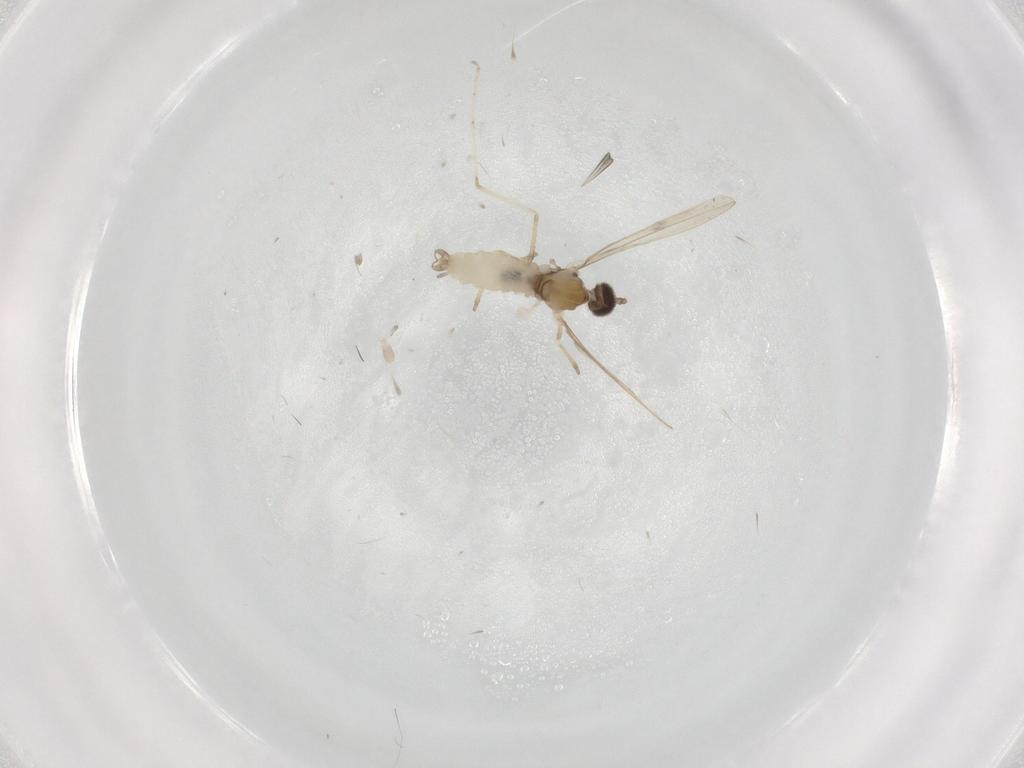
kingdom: Animalia
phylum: Arthropoda
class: Insecta
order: Diptera
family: Cecidomyiidae
